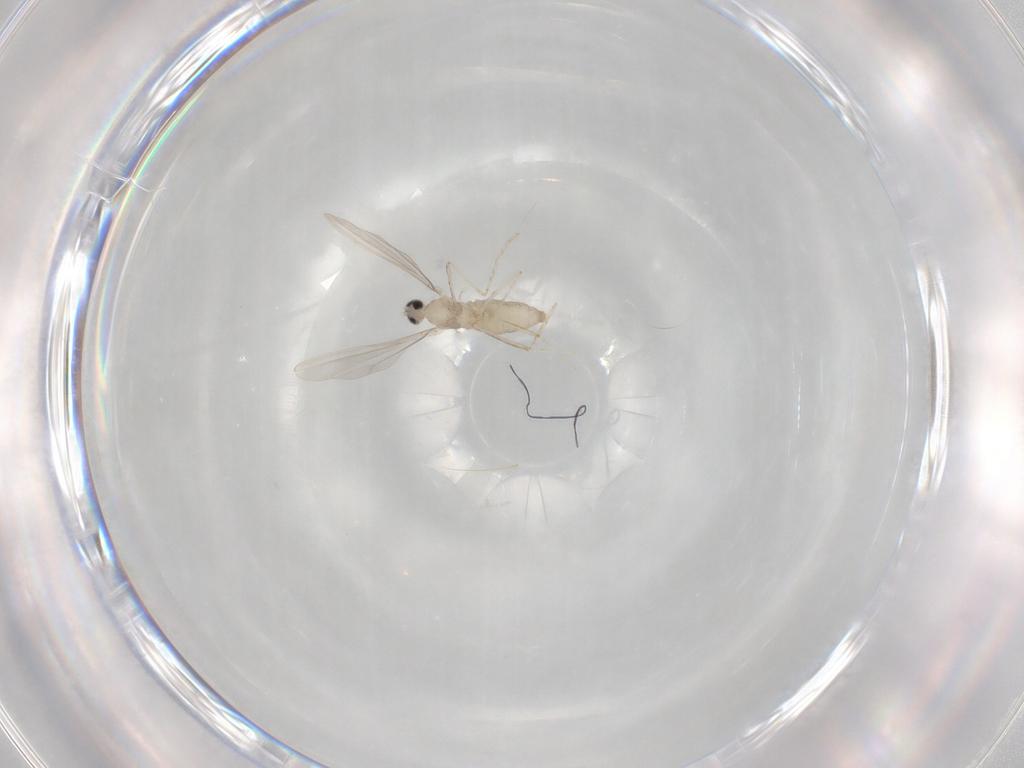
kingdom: Animalia
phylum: Arthropoda
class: Insecta
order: Diptera
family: Cecidomyiidae
